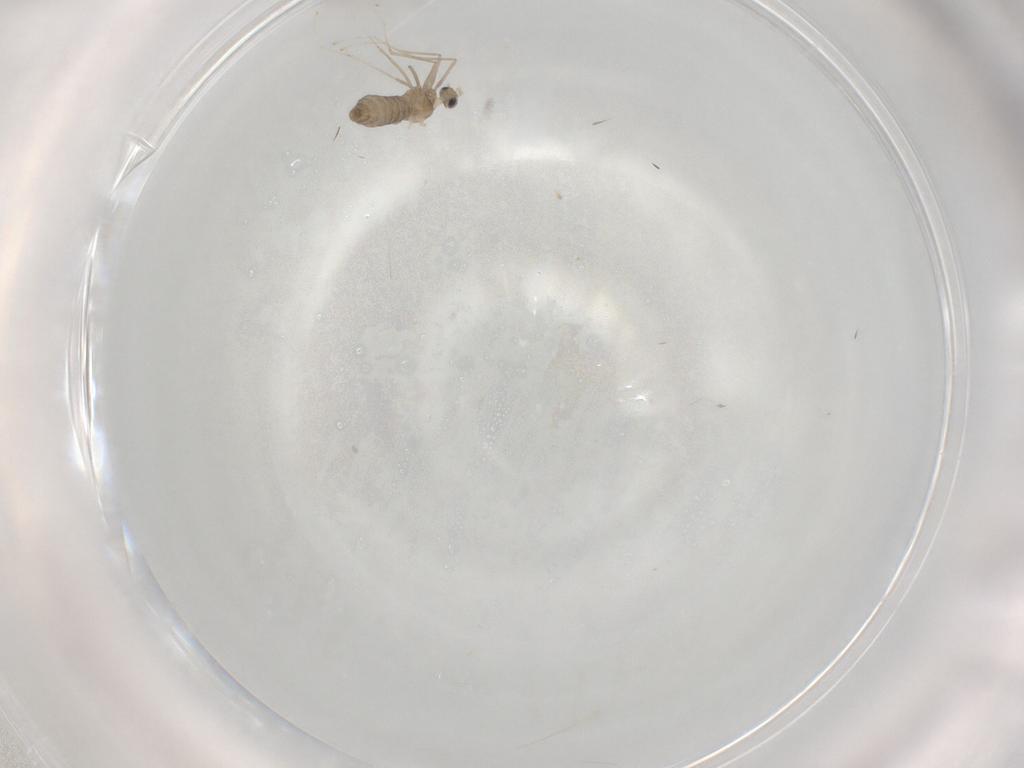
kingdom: Animalia
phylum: Arthropoda
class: Insecta
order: Diptera
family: Cecidomyiidae
